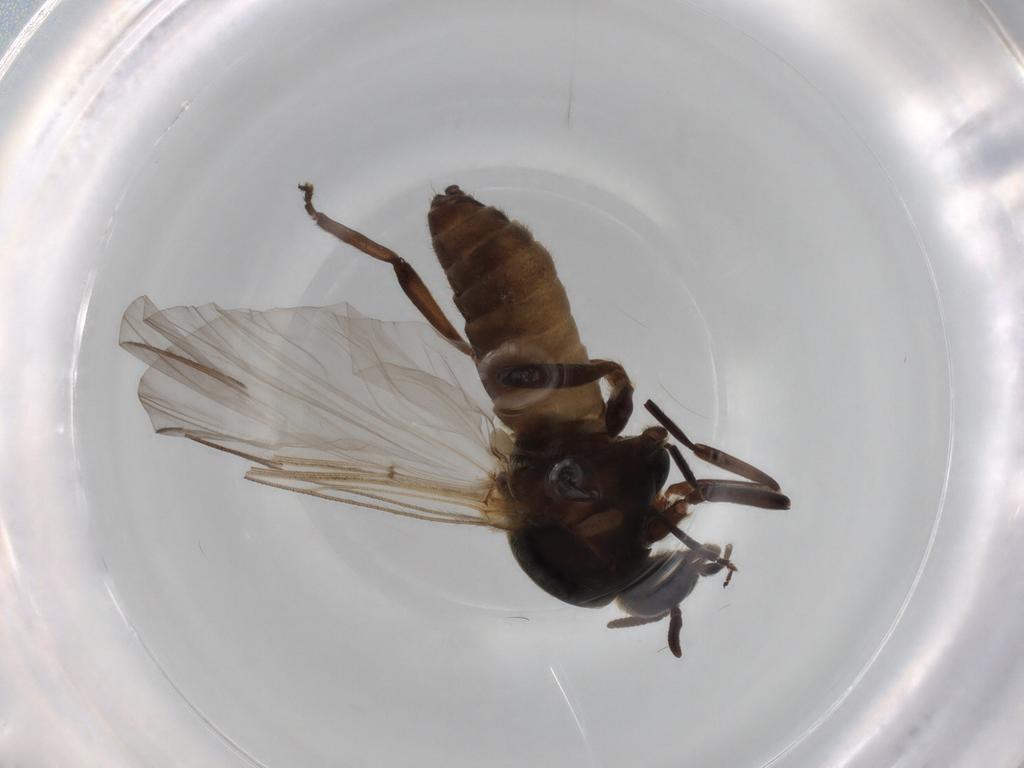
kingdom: Animalia
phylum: Arthropoda
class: Insecta
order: Diptera
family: Simuliidae
